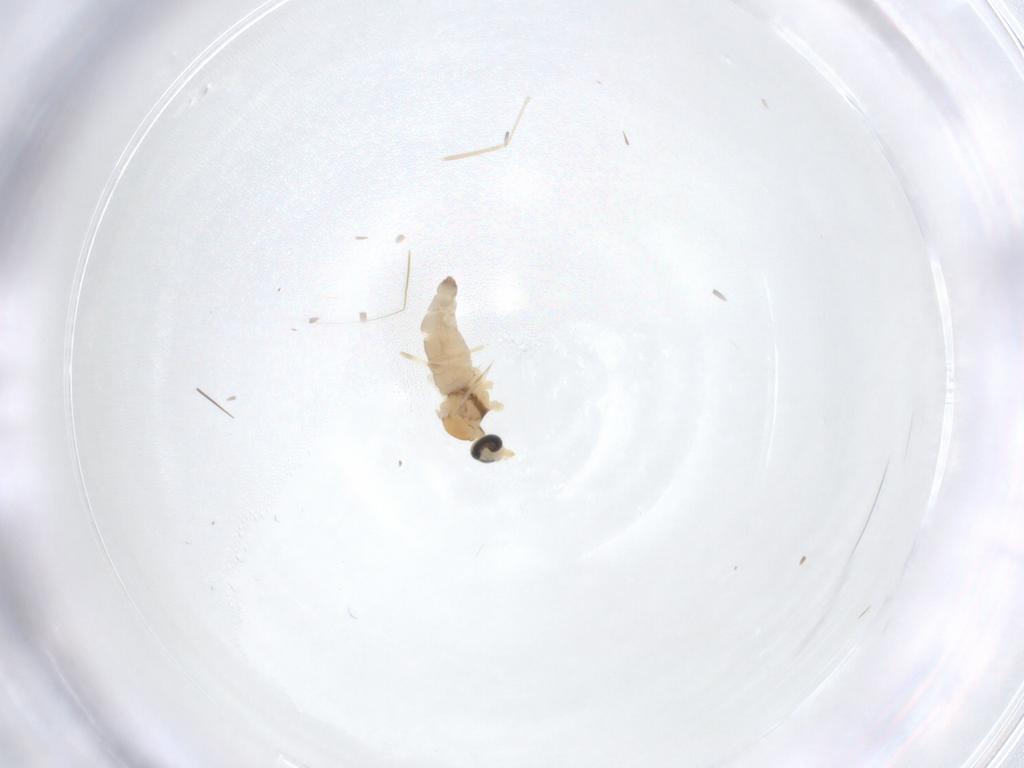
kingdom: Animalia
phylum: Arthropoda
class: Insecta
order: Diptera
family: Cecidomyiidae
